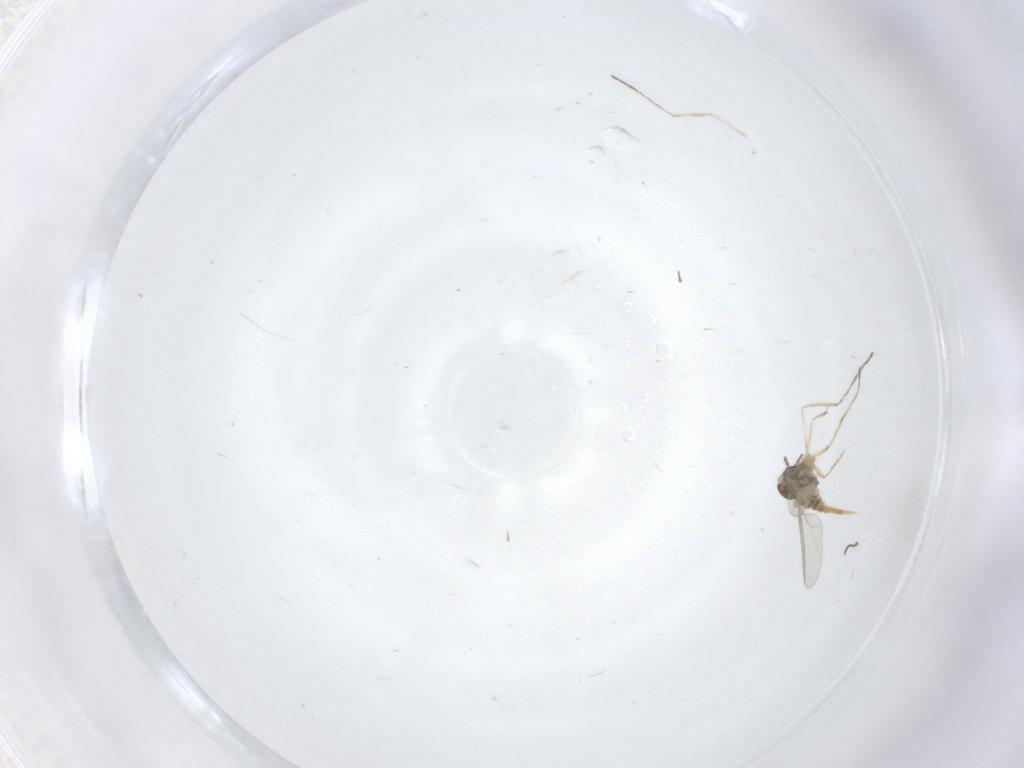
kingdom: Animalia
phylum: Arthropoda
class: Insecta
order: Diptera
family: Cecidomyiidae
